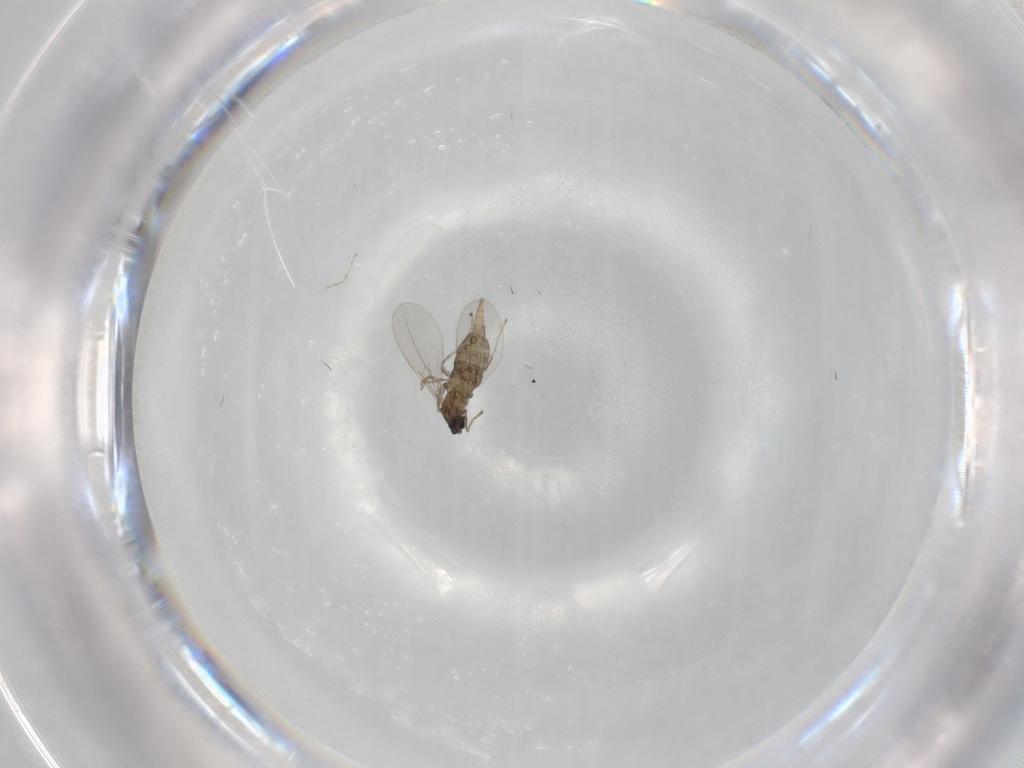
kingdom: Animalia
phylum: Arthropoda
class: Insecta
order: Diptera
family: Cecidomyiidae
